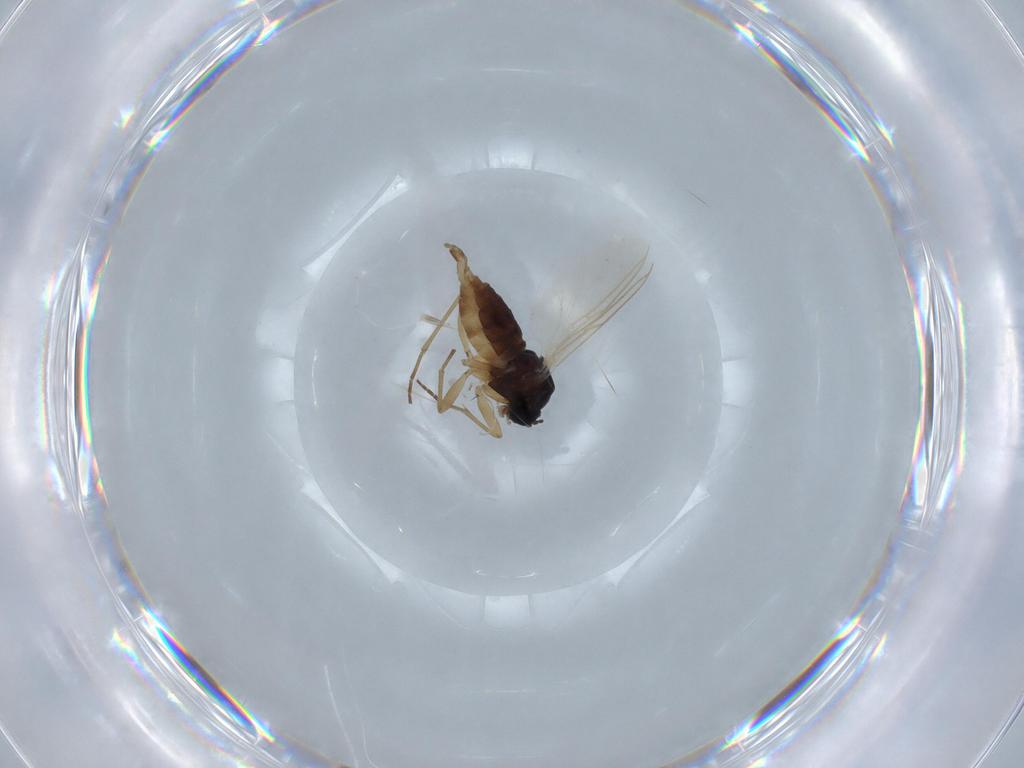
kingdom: Animalia
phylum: Arthropoda
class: Insecta
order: Diptera
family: Sciaridae
